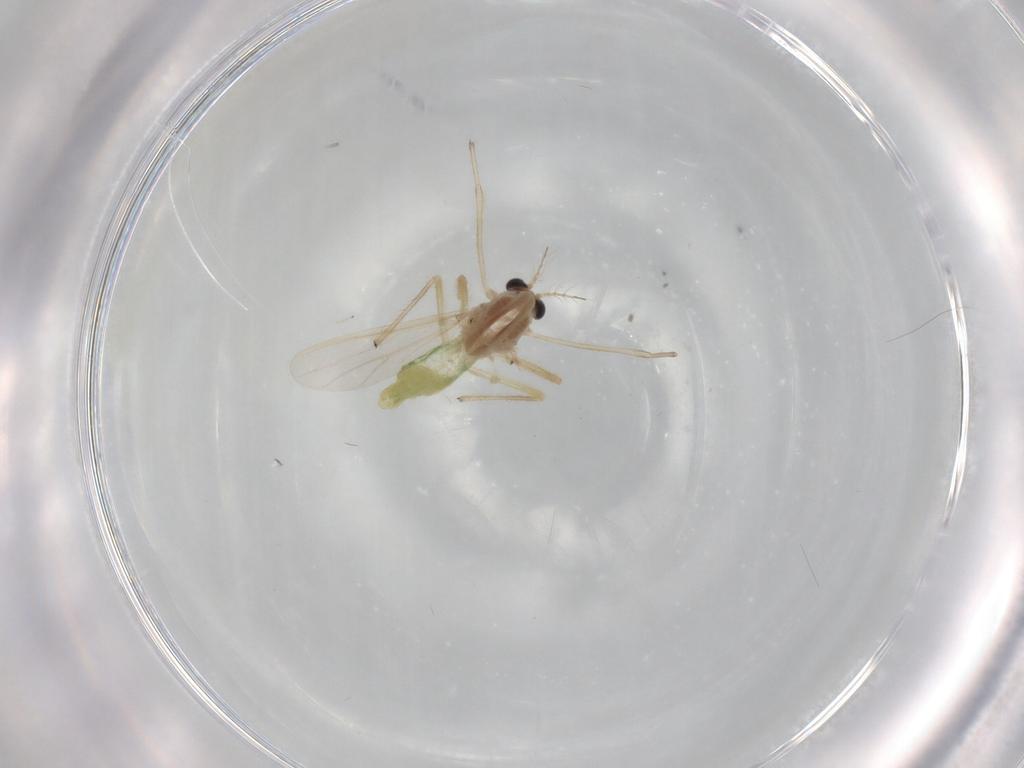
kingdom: Animalia
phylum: Arthropoda
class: Insecta
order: Diptera
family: Chironomidae
